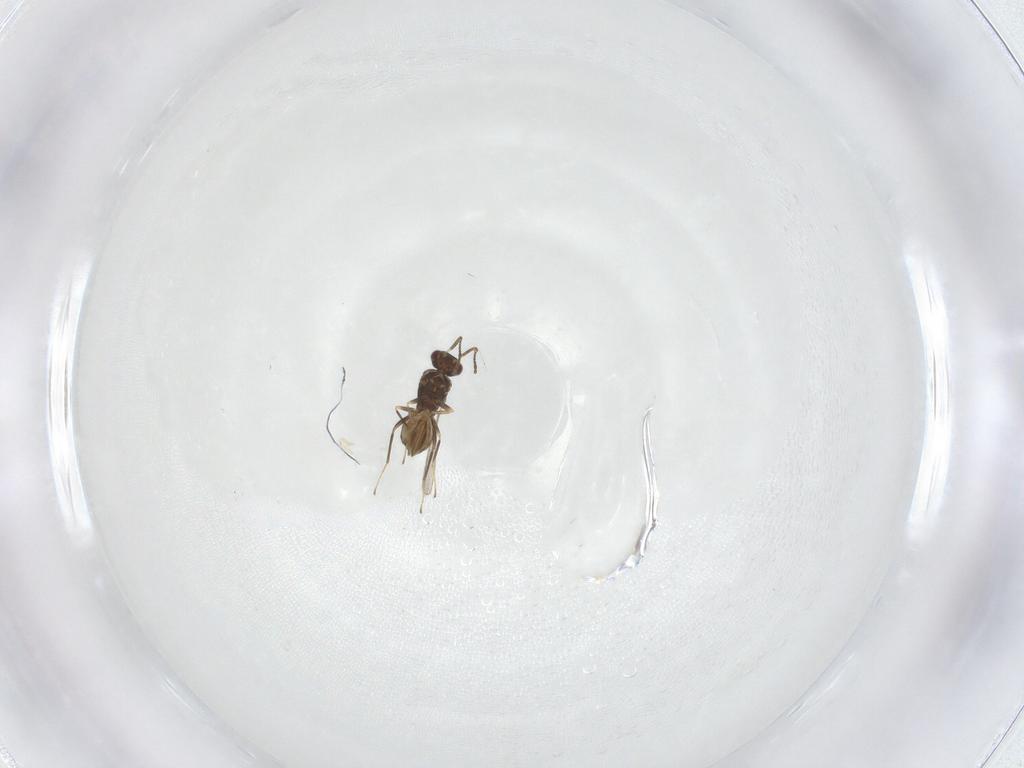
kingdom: Animalia
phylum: Arthropoda
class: Insecta
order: Hymenoptera
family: Mymaridae
